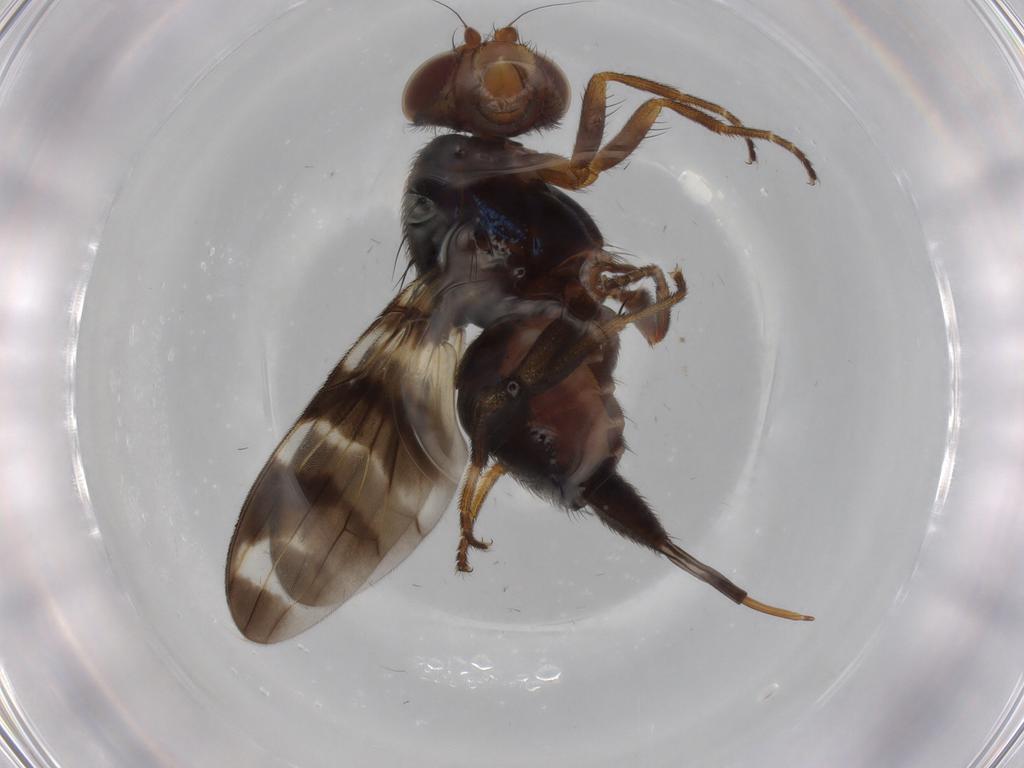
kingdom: Animalia
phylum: Arthropoda
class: Insecta
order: Diptera
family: Ulidiidae
